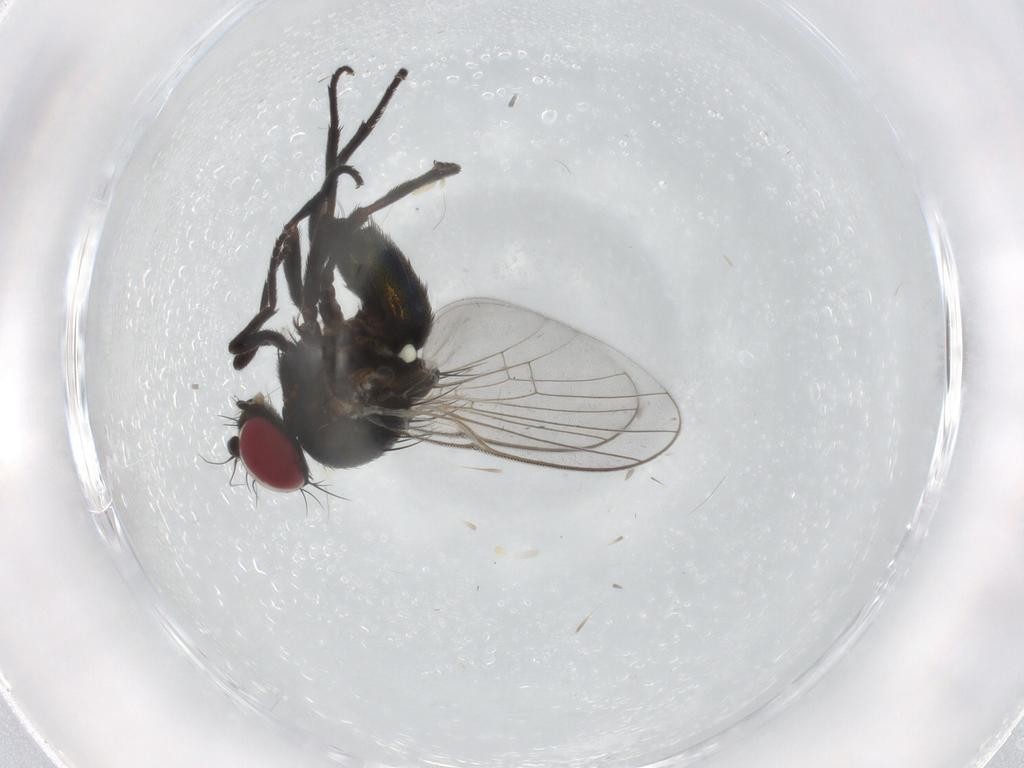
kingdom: Animalia
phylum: Arthropoda
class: Insecta
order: Diptera
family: Agromyzidae
